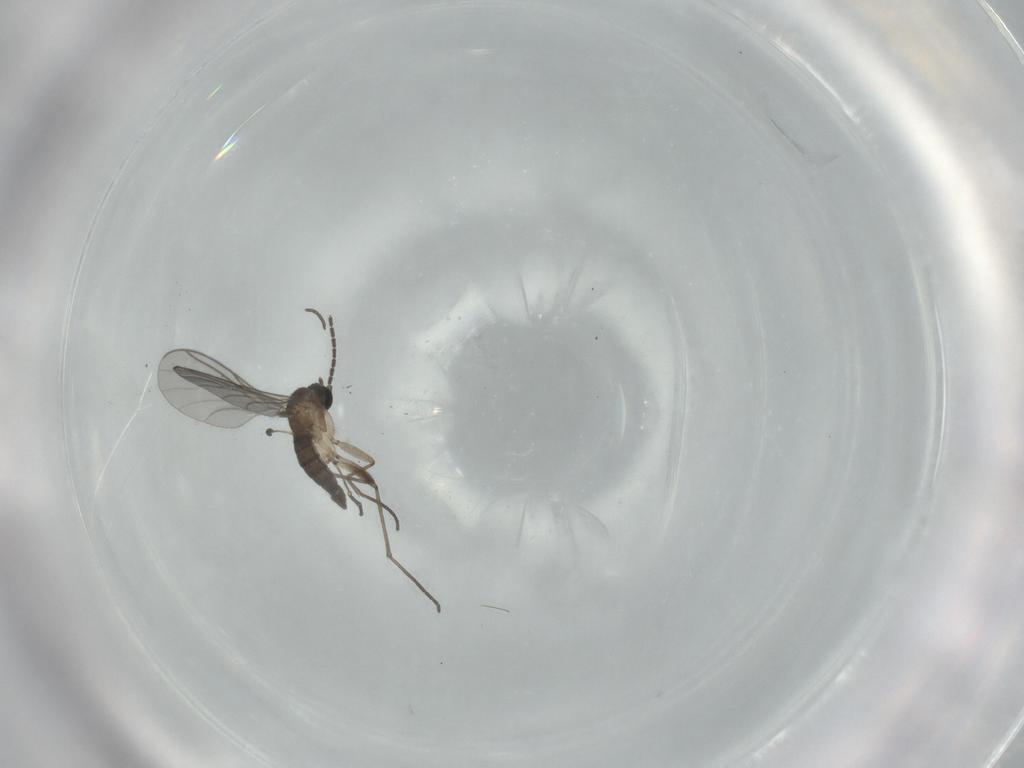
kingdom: Animalia
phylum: Arthropoda
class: Insecta
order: Diptera
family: Sciaridae
